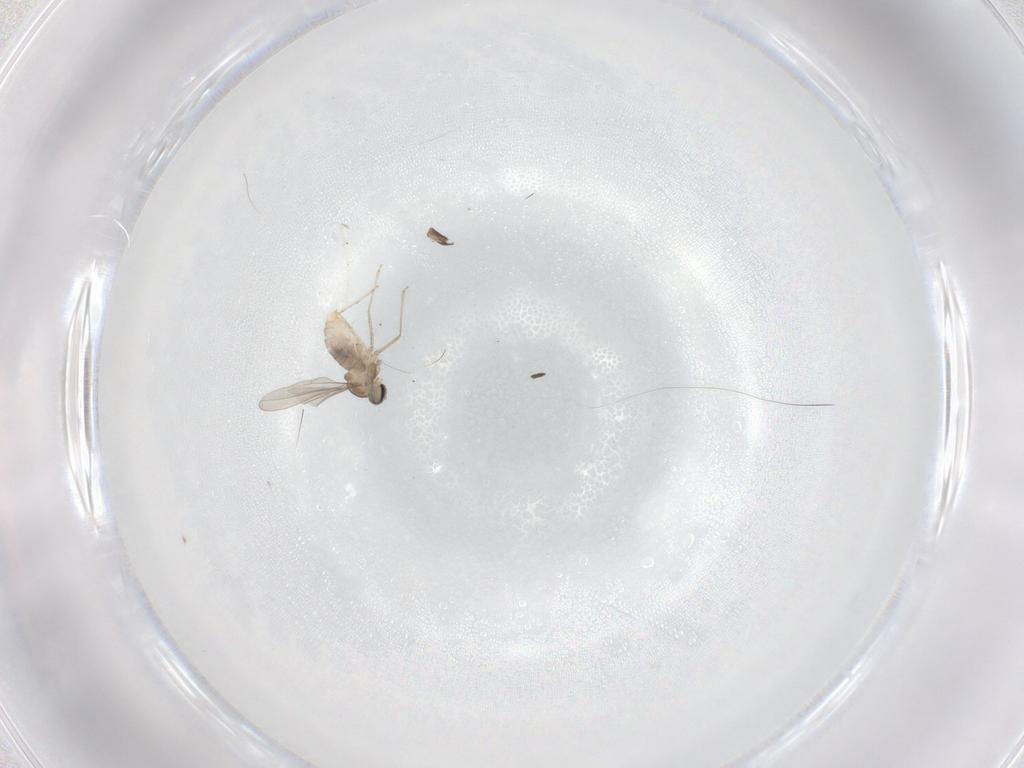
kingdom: Animalia
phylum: Arthropoda
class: Insecta
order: Diptera
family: Cecidomyiidae
